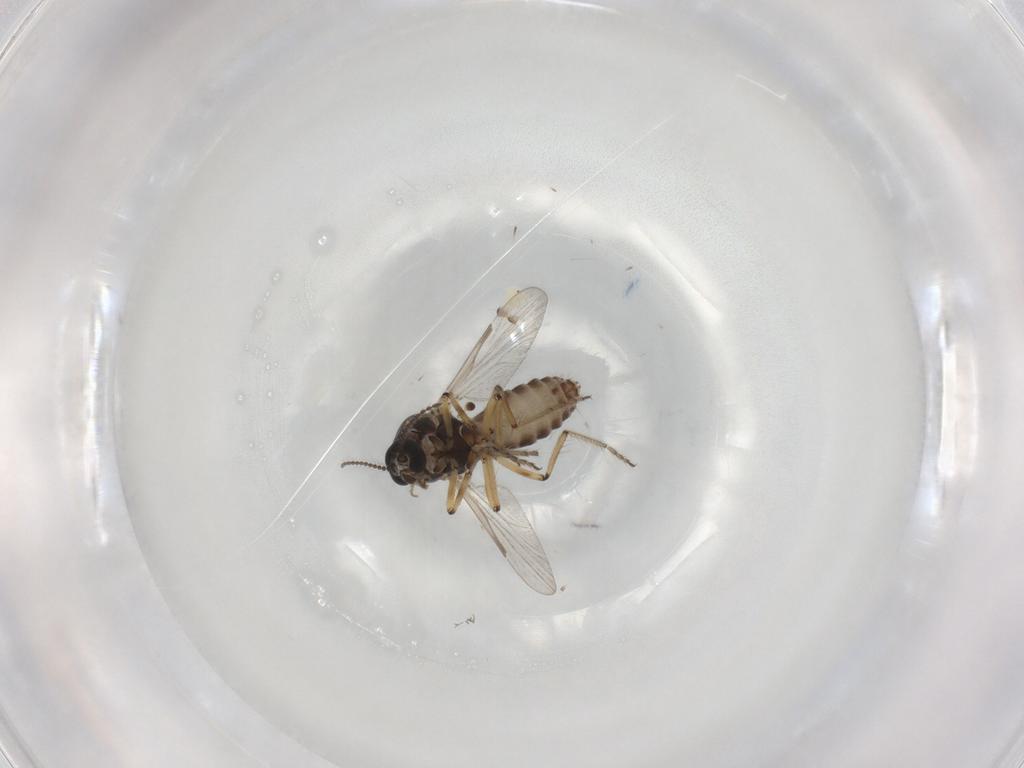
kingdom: Animalia
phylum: Arthropoda
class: Insecta
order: Diptera
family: Ceratopogonidae
